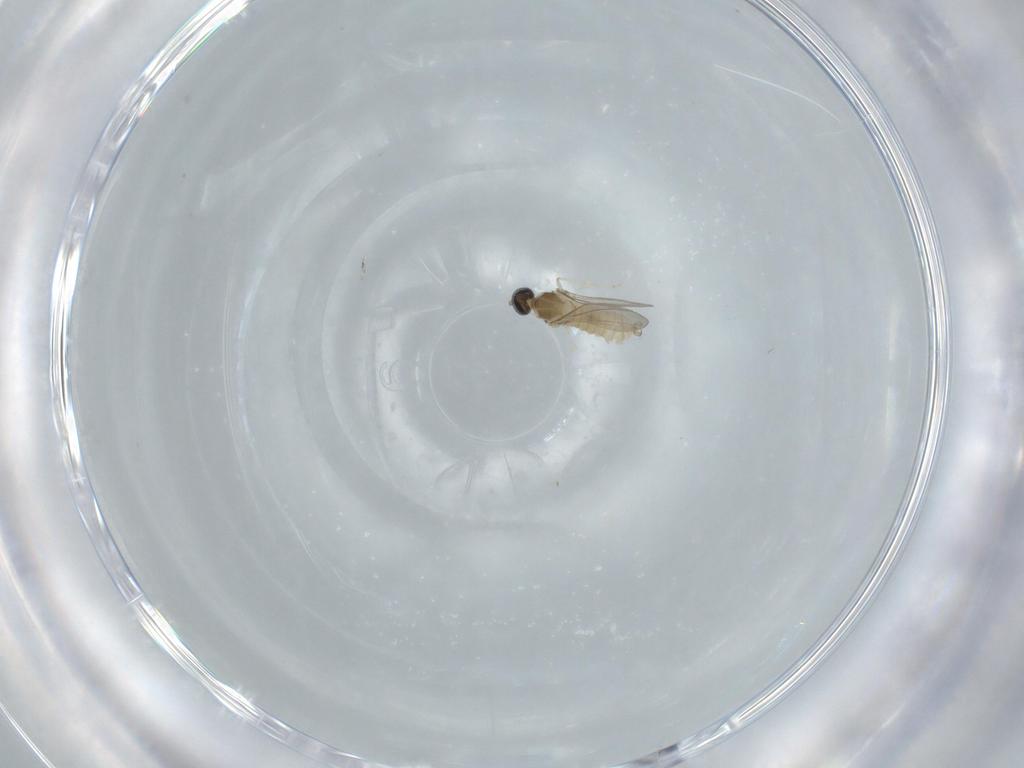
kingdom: Animalia
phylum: Arthropoda
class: Insecta
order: Diptera
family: Cecidomyiidae
